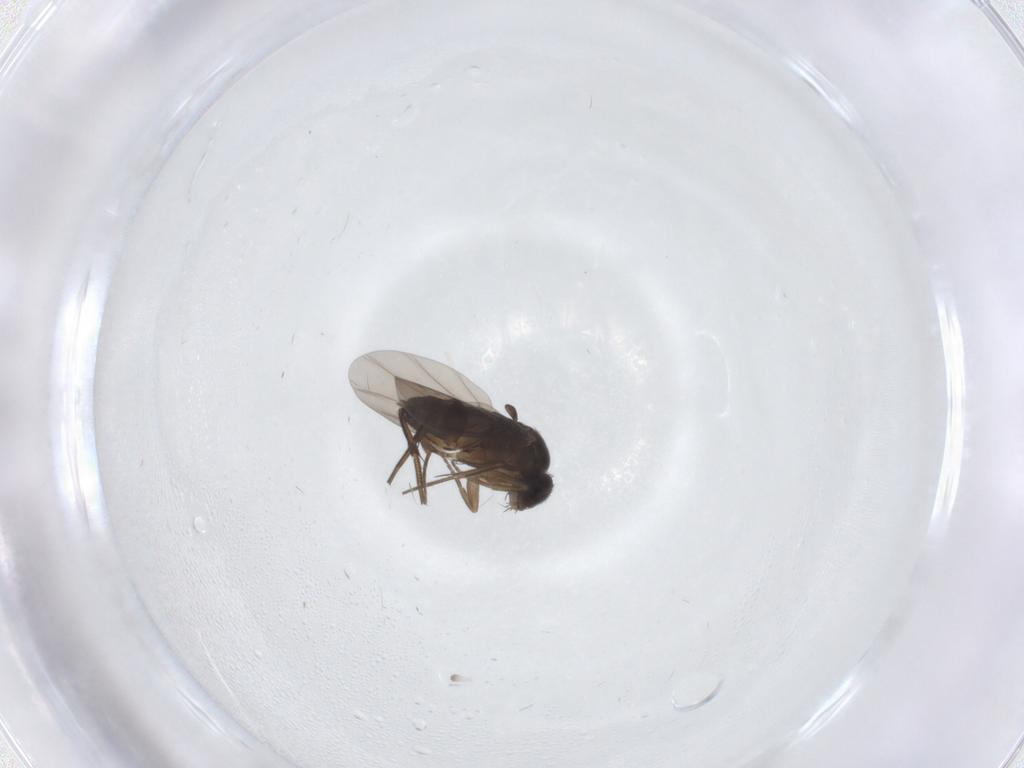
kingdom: Animalia
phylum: Arthropoda
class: Insecta
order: Diptera
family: Phoridae
